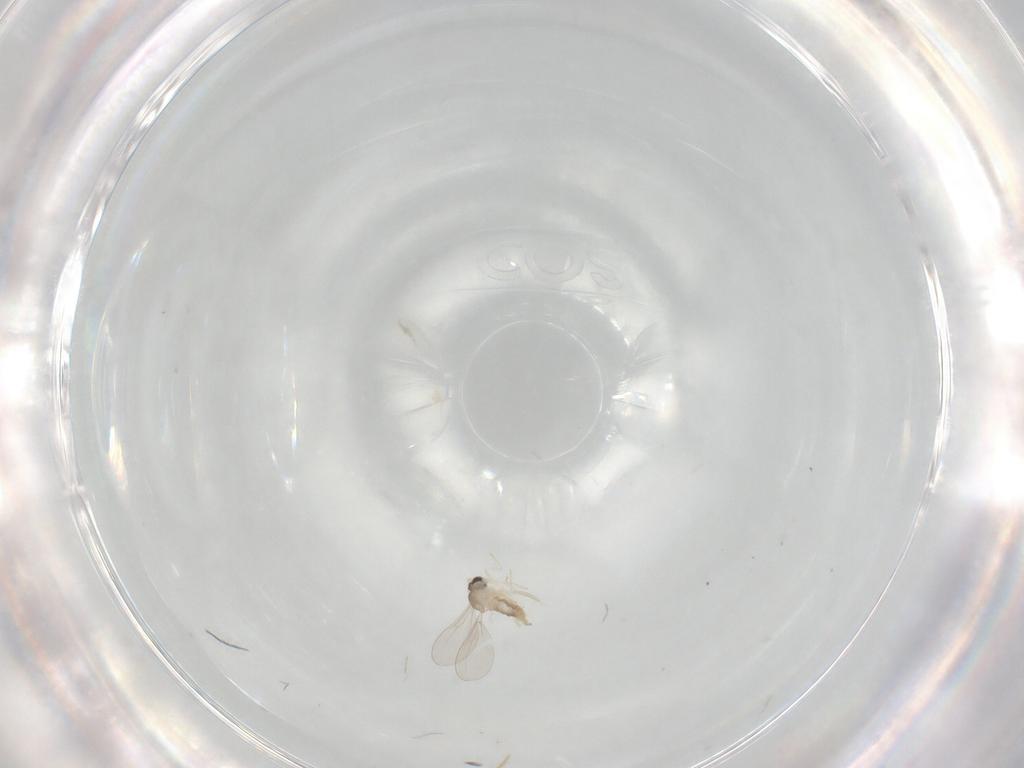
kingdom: Animalia
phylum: Arthropoda
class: Insecta
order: Diptera
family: Cecidomyiidae
